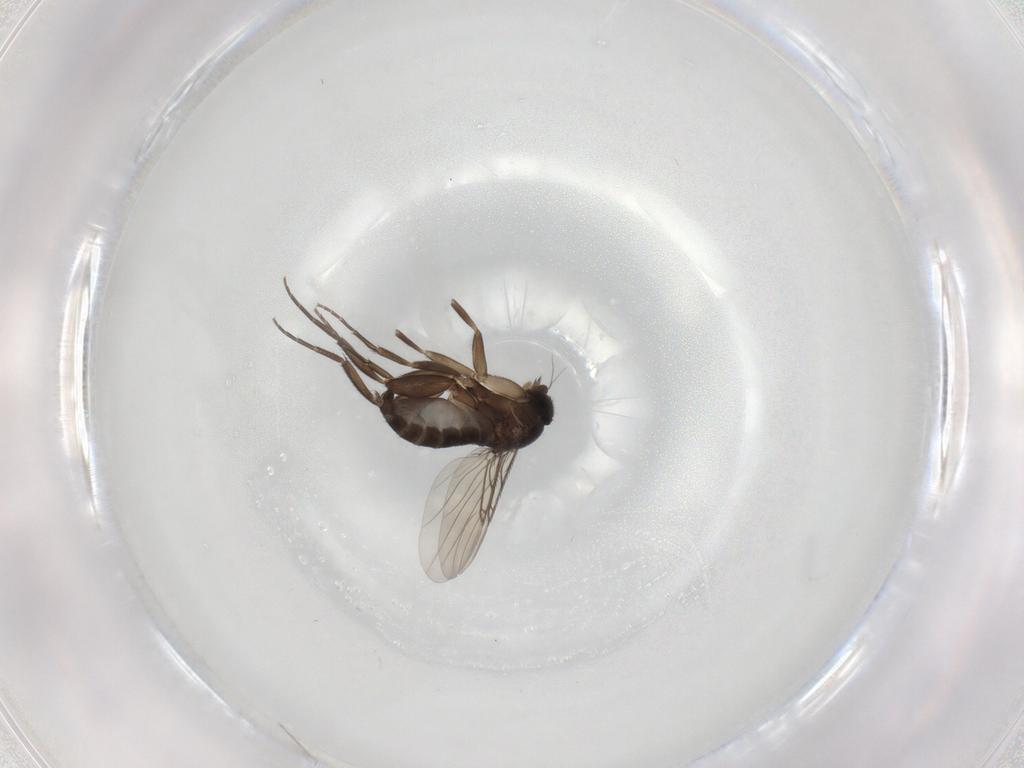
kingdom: Animalia
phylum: Arthropoda
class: Insecta
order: Diptera
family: Phoridae
